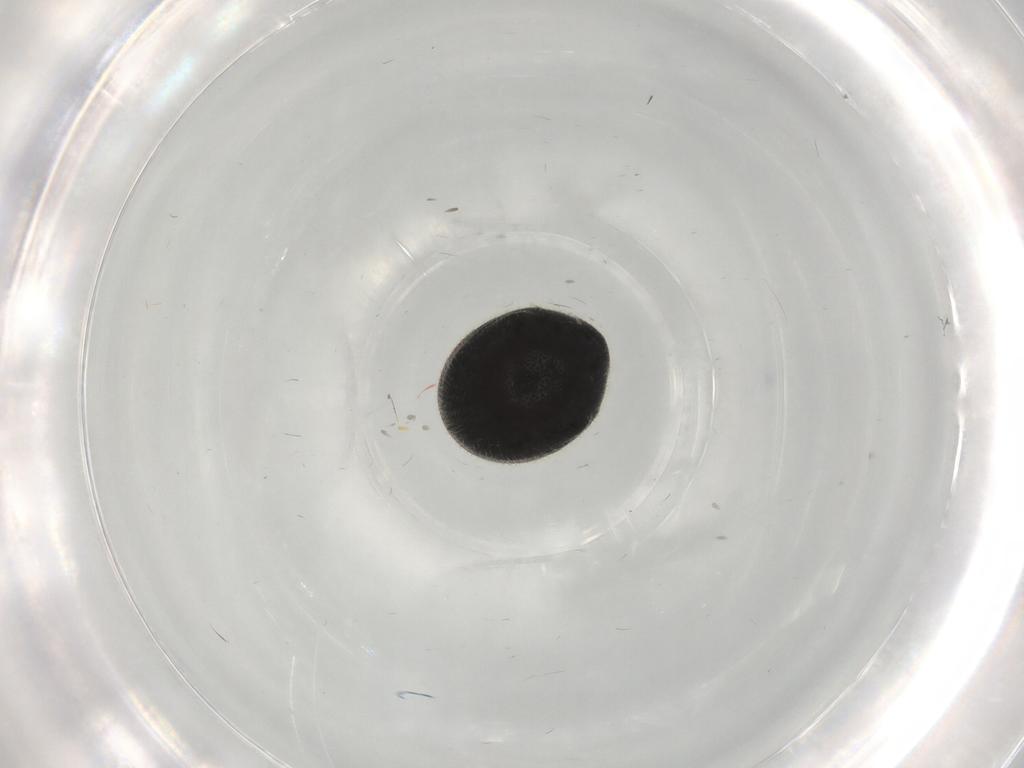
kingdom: Animalia
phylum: Arthropoda
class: Insecta
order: Coleoptera
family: Ptinidae
